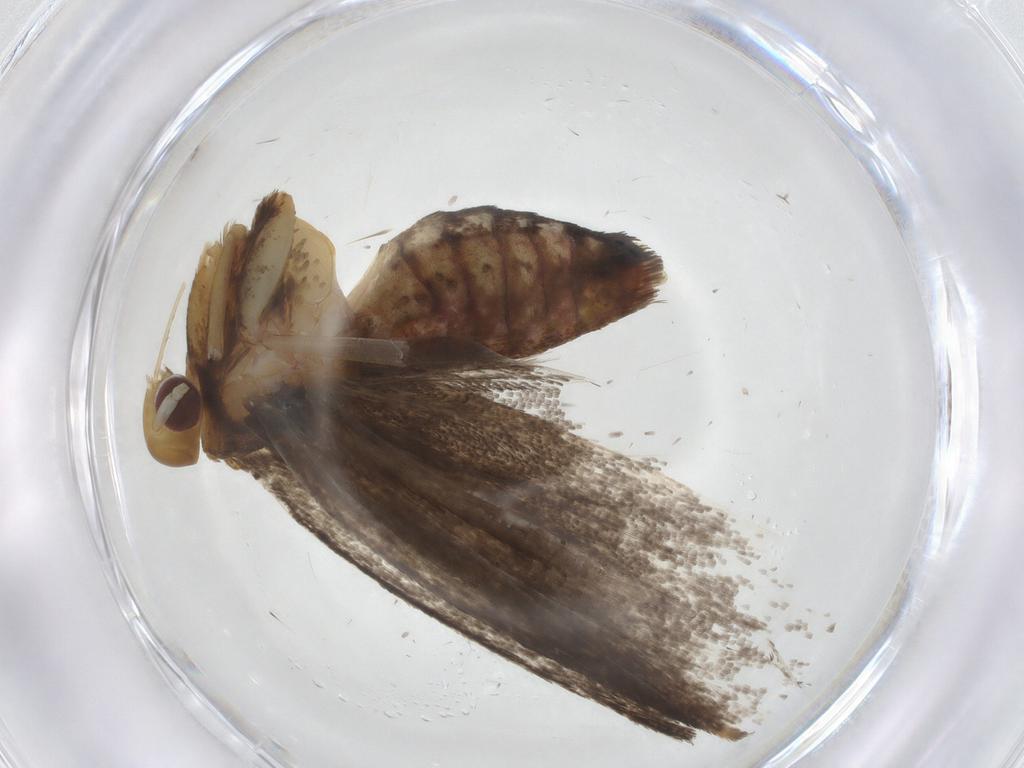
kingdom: Animalia
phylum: Arthropoda
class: Insecta
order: Lepidoptera
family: Lecithoceridae
